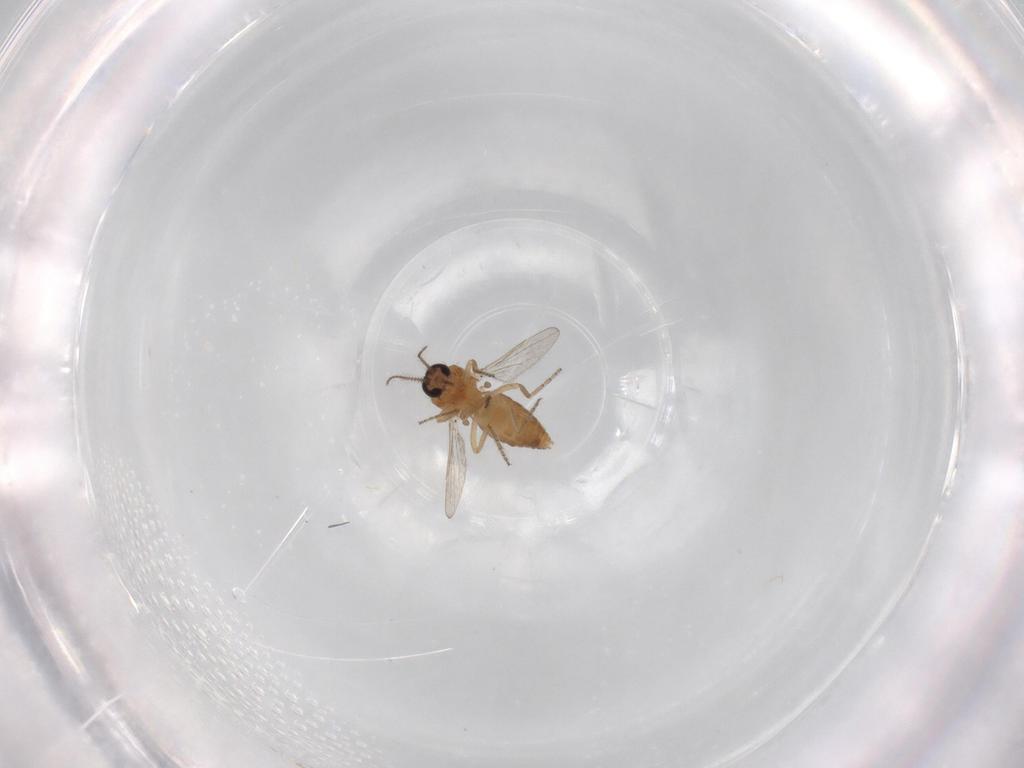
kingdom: Animalia
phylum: Arthropoda
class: Insecta
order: Diptera
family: Ceratopogonidae
